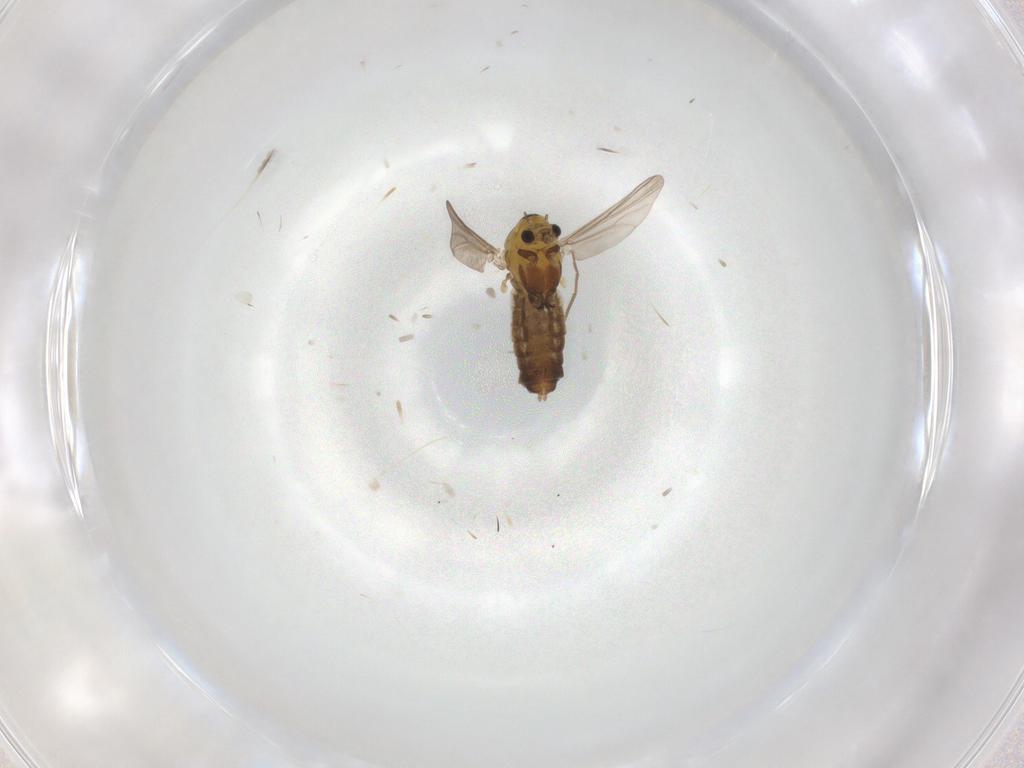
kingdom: Animalia
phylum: Arthropoda
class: Insecta
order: Diptera
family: Chironomidae
